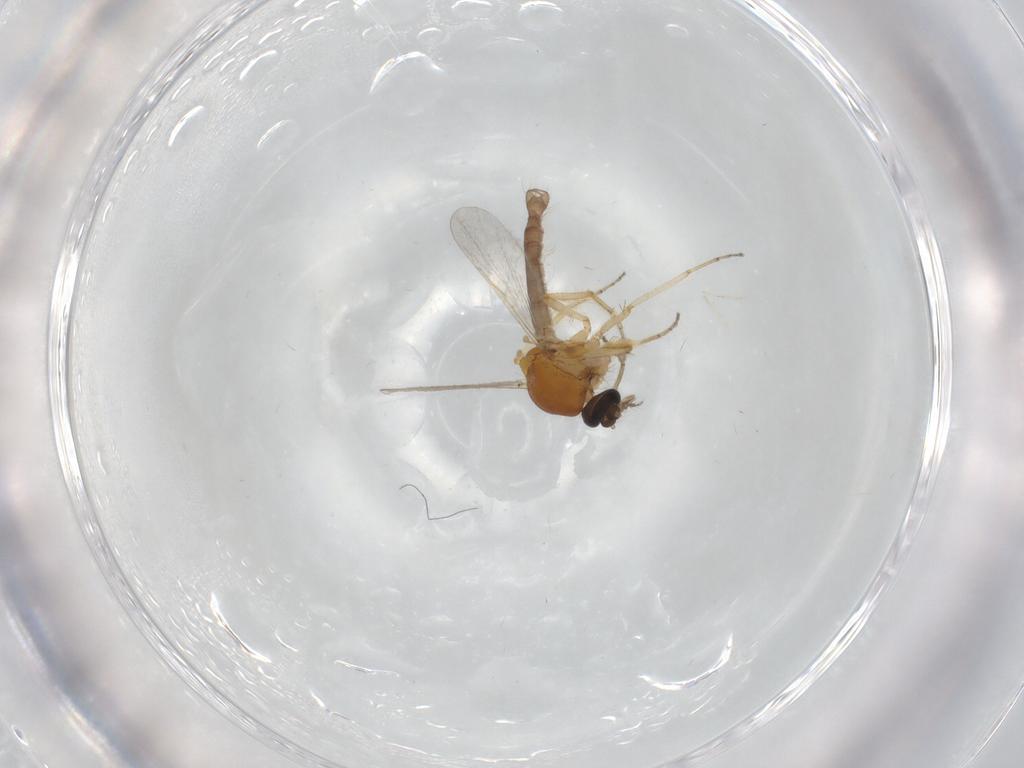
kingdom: Animalia
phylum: Arthropoda
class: Insecta
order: Diptera
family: Ceratopogonidae
